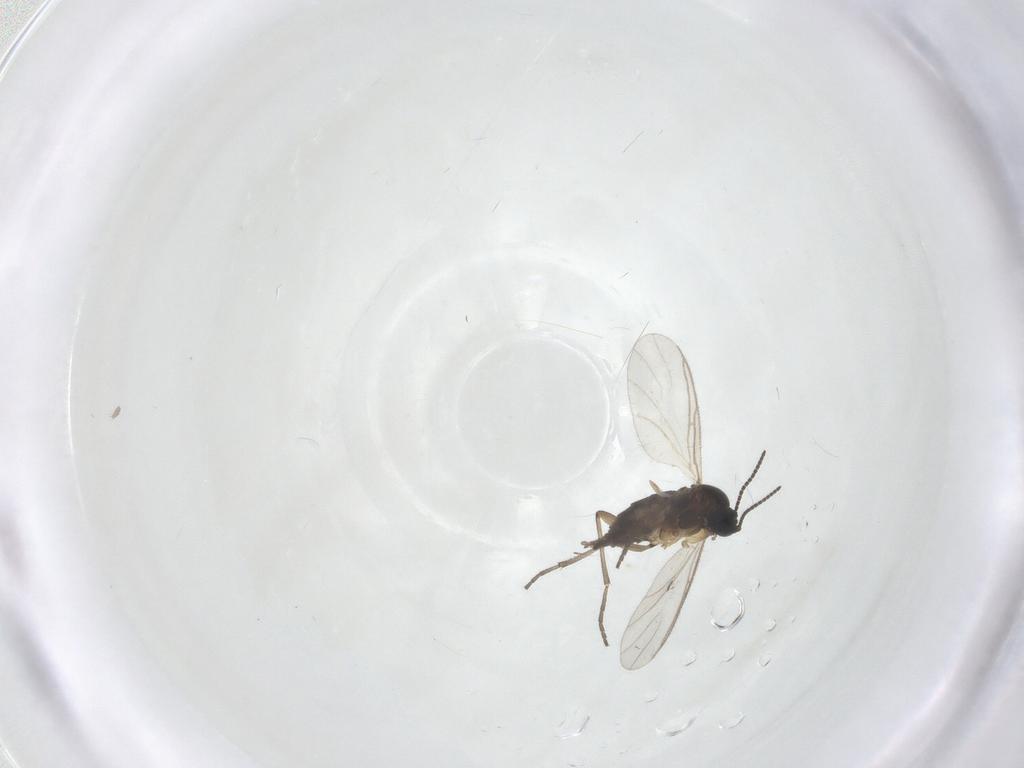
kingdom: Animalia
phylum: Arthropoda
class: Insecta
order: Diptera
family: Sciaridae
